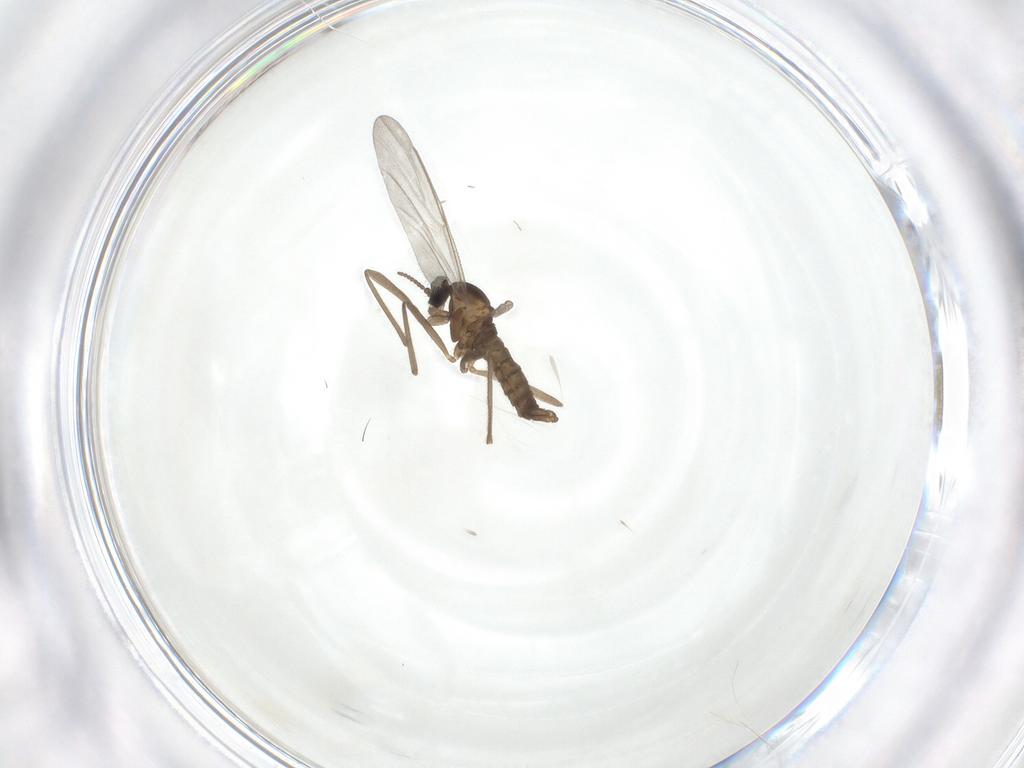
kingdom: Animalia
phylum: Arthropoda
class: Insecta
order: Diptera
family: Cecidomyiidae
